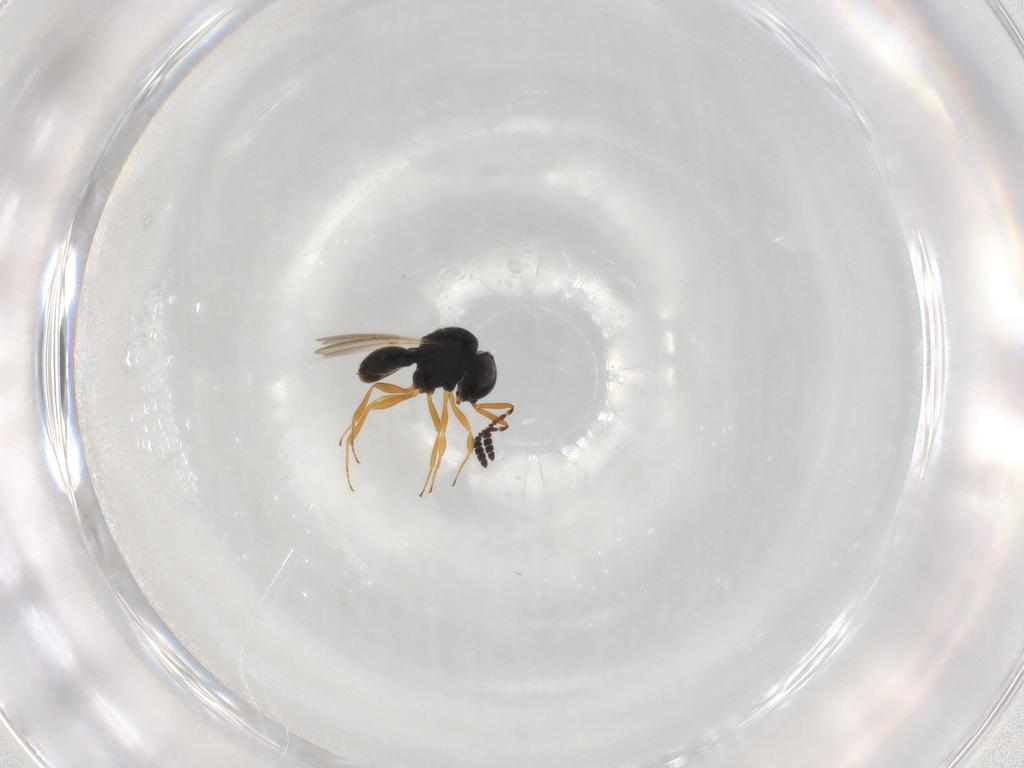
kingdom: Animalia
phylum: Arthropoda
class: Insecta
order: Hymenoptera
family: Scelionidae
